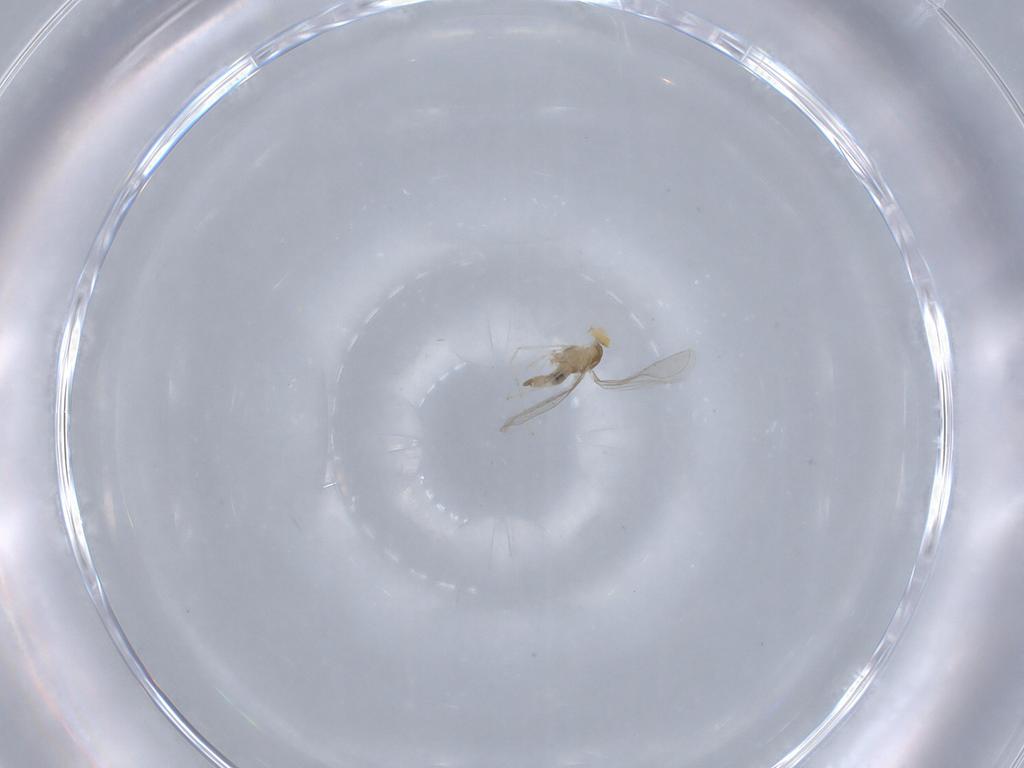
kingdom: Animalia
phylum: Arthropoda
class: Insecta
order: Diptera
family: Cecidomyiidae
